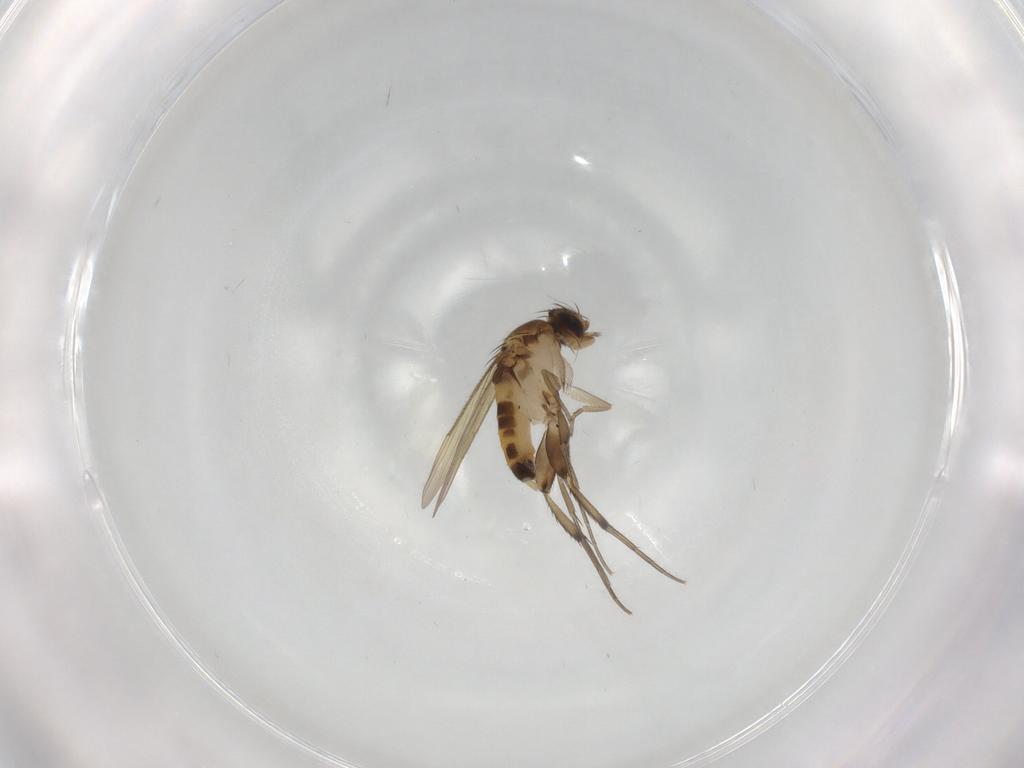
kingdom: Animalia
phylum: Arthropoda
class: Insecta
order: Diptera
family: Phoridae
